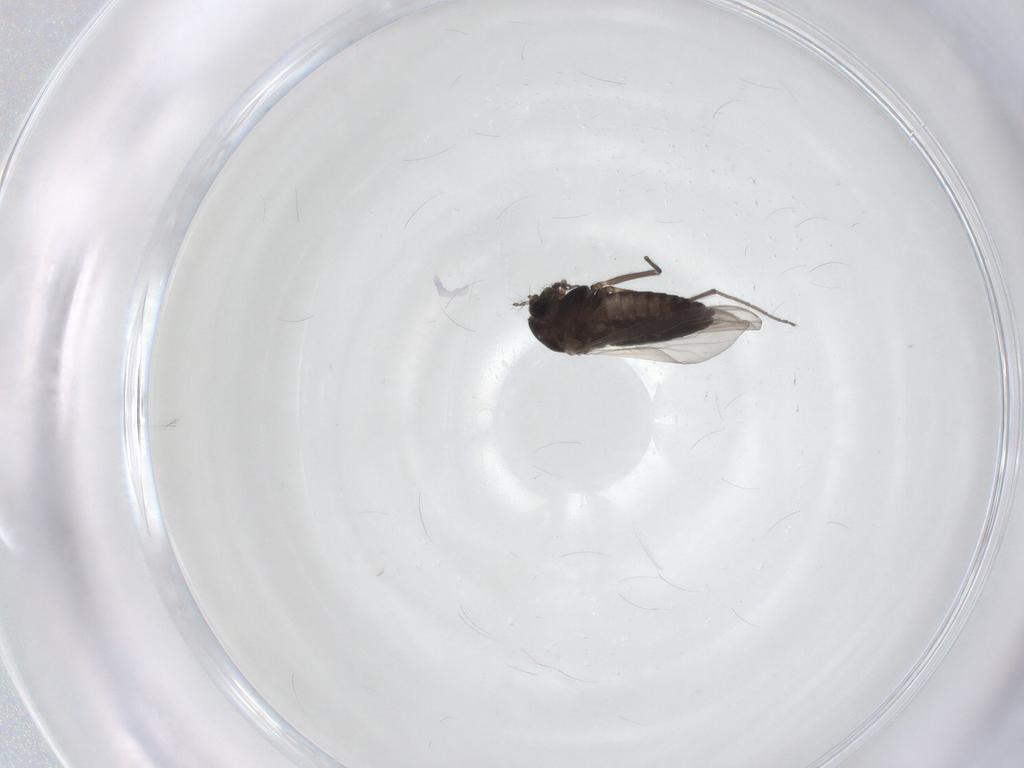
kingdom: Animalia
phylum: Arthropoda
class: Insecta
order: Diptera
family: Chironomidae
